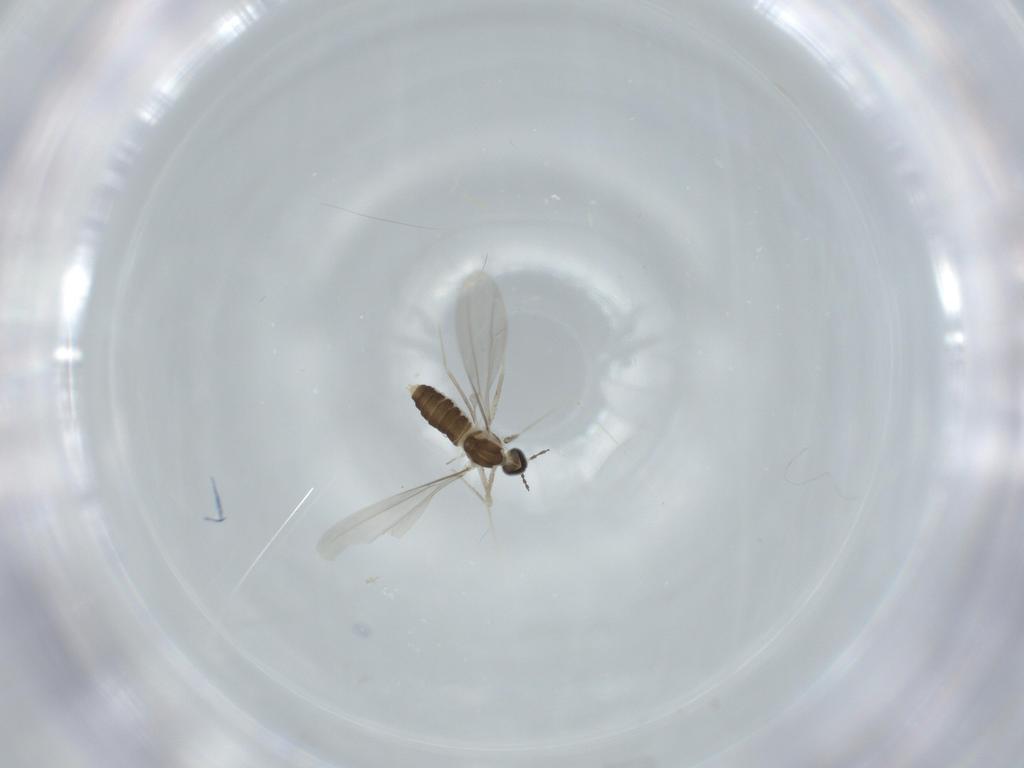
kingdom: Animalia
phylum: Arthropoda
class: Insecta
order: Diptera
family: Cecidomyiidae
